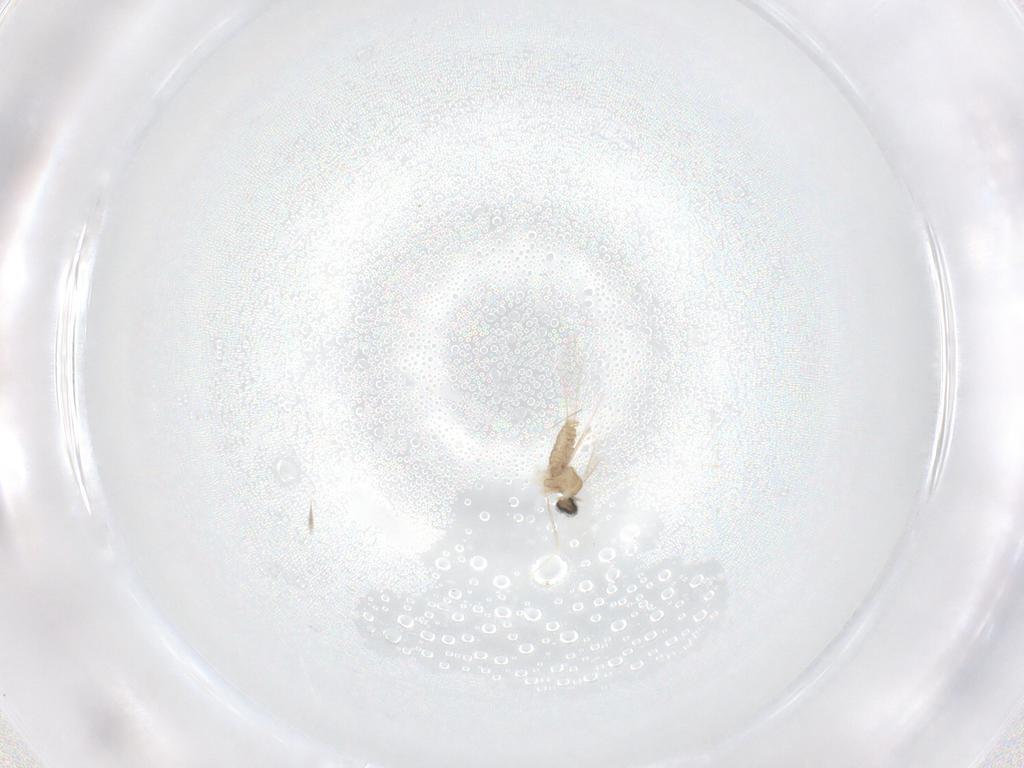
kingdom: Animalia
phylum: Arthropoda
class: Insecta
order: Diptera
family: Cecidomyiidae
